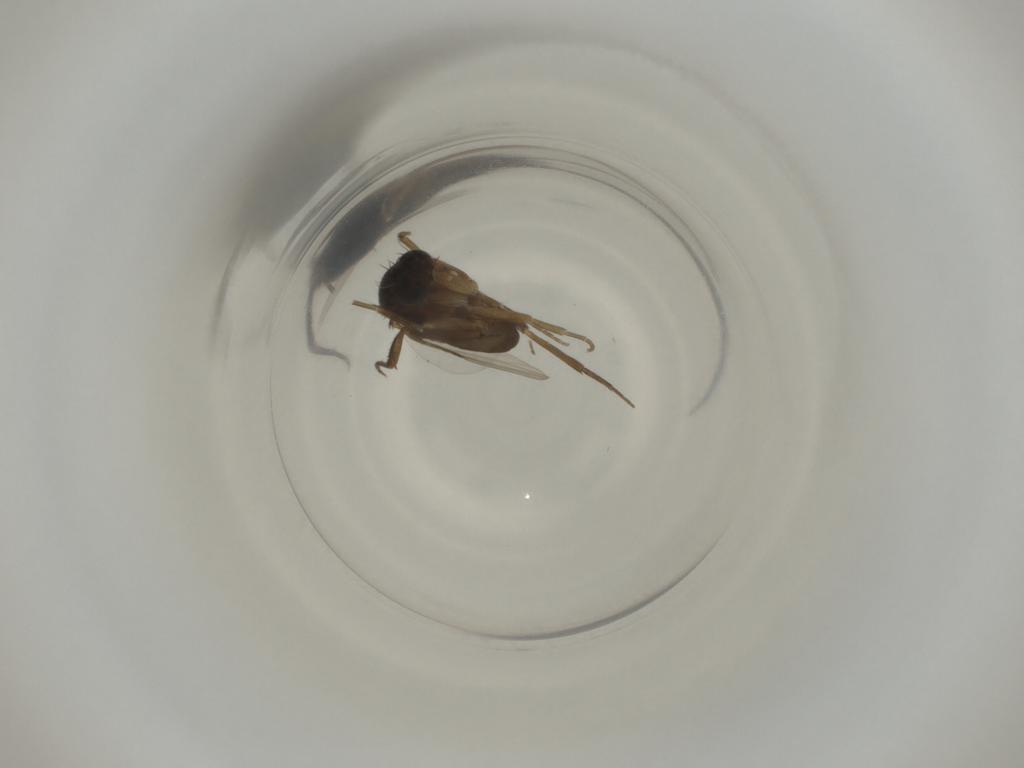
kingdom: Animalia
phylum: Arthropoda
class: Insecta
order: Diptera
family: Phoridae
